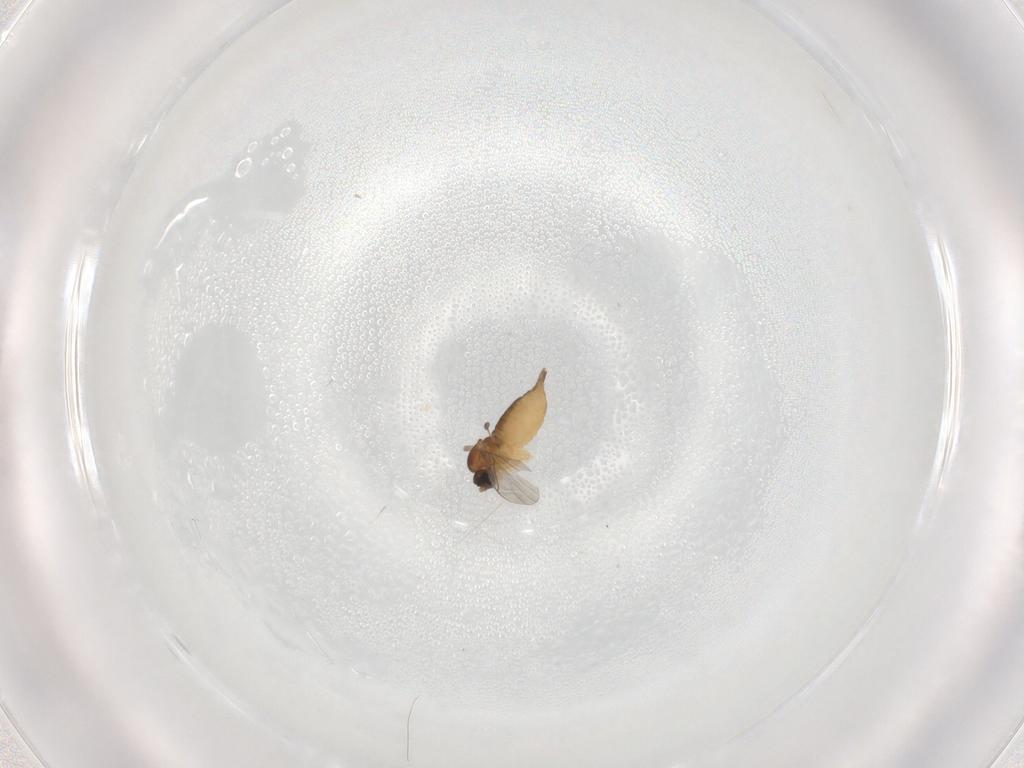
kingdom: Animalia
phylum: Arthropoda
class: Insecta
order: Diptera
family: Sciaridae
